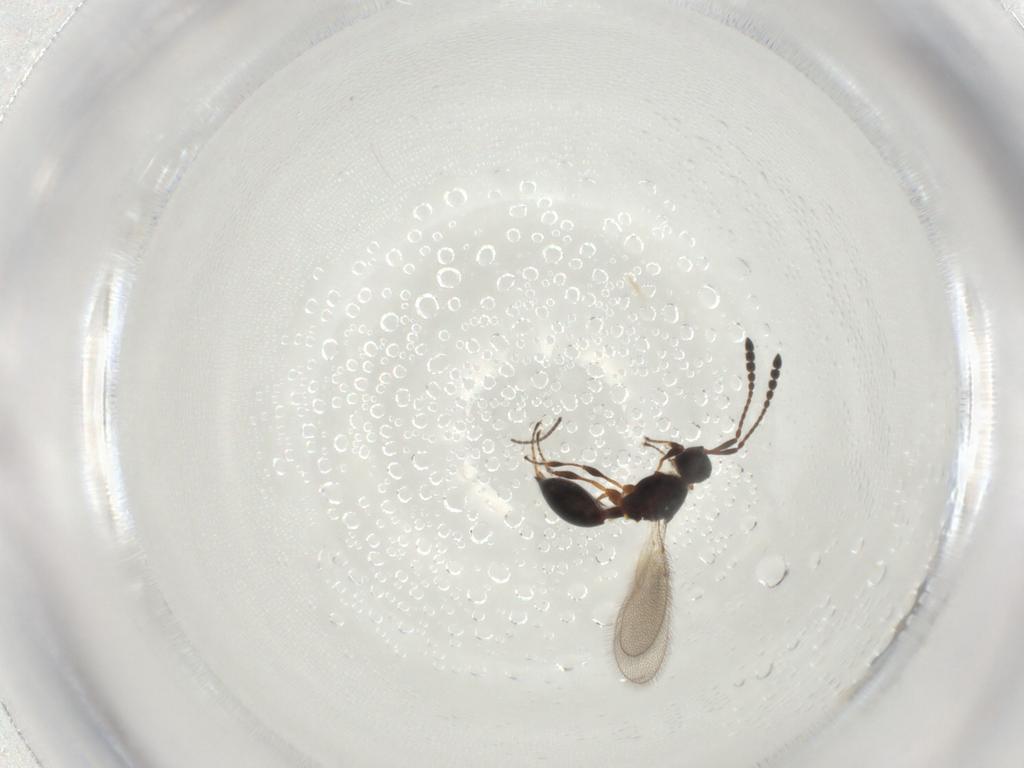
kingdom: Animalia
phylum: Arthropoda
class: Insecta
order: Hymenoptera
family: Diapriidae
